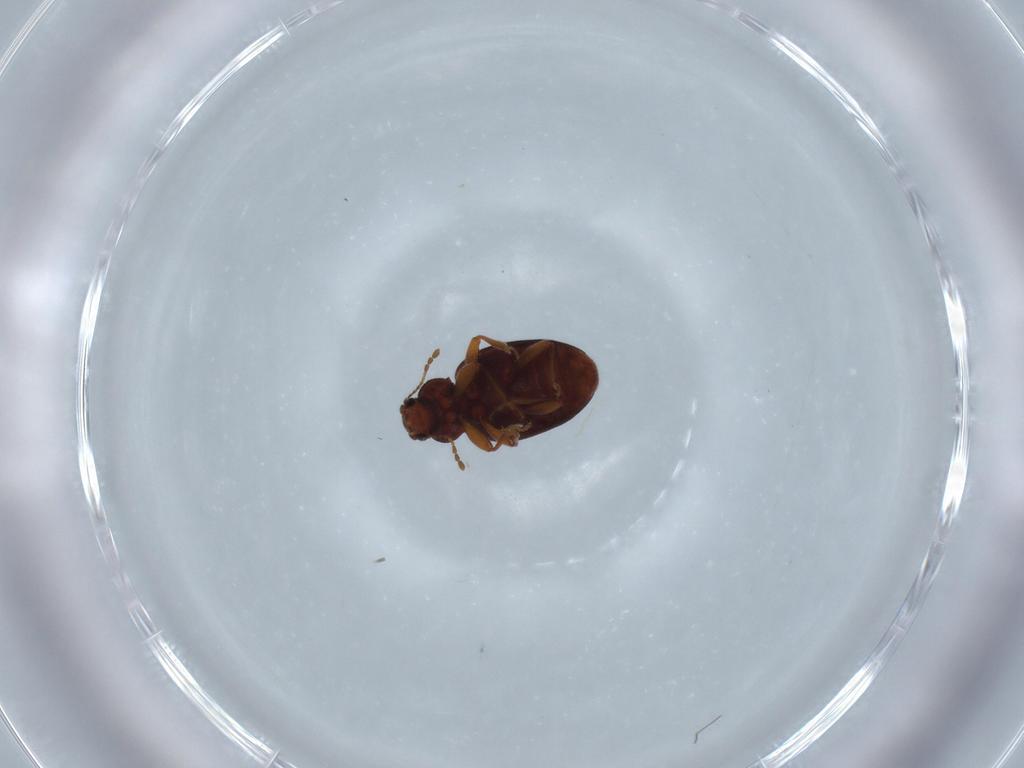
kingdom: Animalia
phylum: Arthropoda
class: Insecta
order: Coleoptera
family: Latridiidae
